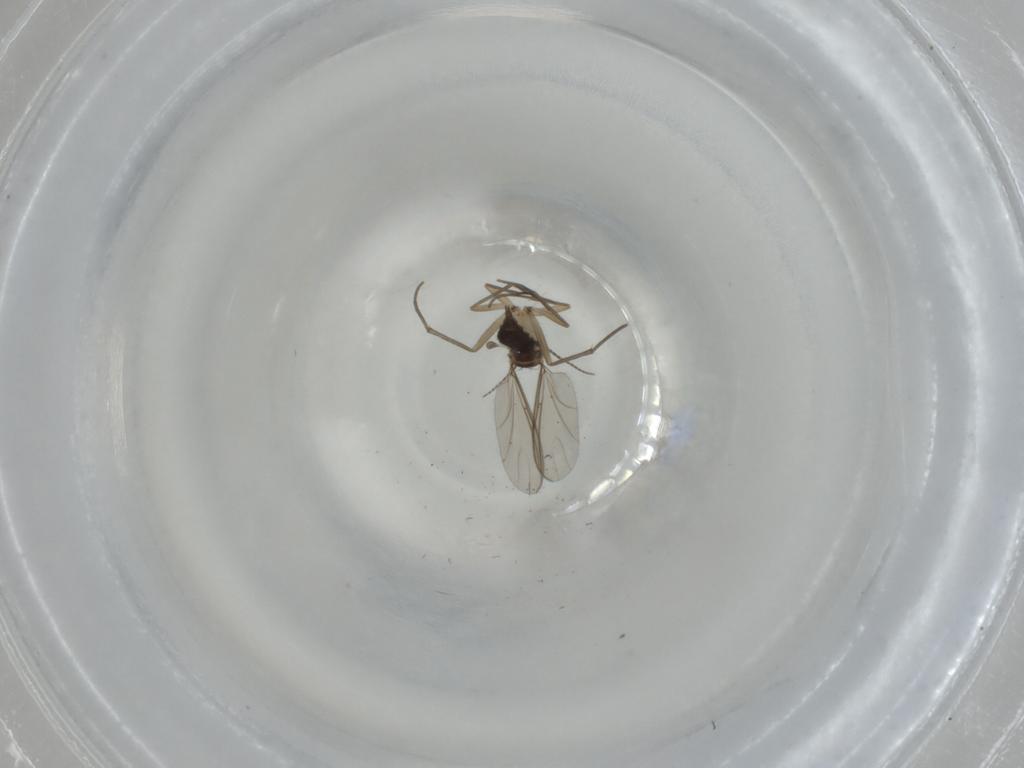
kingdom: Animalia
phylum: Arthropoda
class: Insecta
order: Diptera
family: Sciaridae
